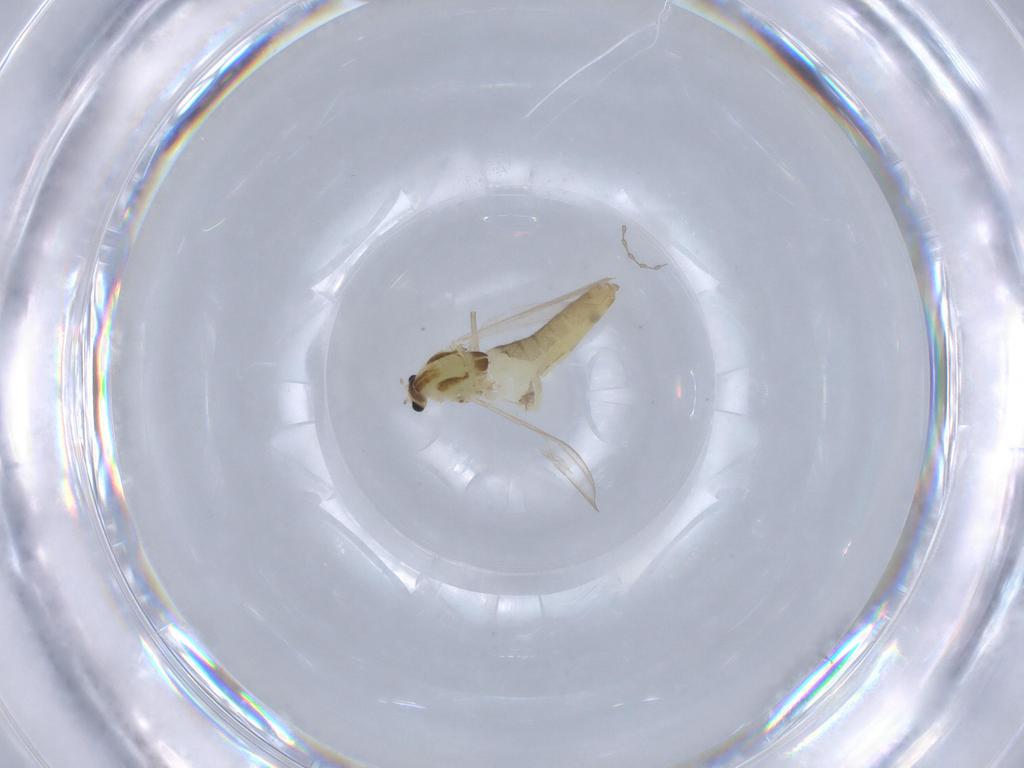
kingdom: Animalia
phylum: Arthropoda
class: Insecta
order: Diptera
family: Chironomidae
